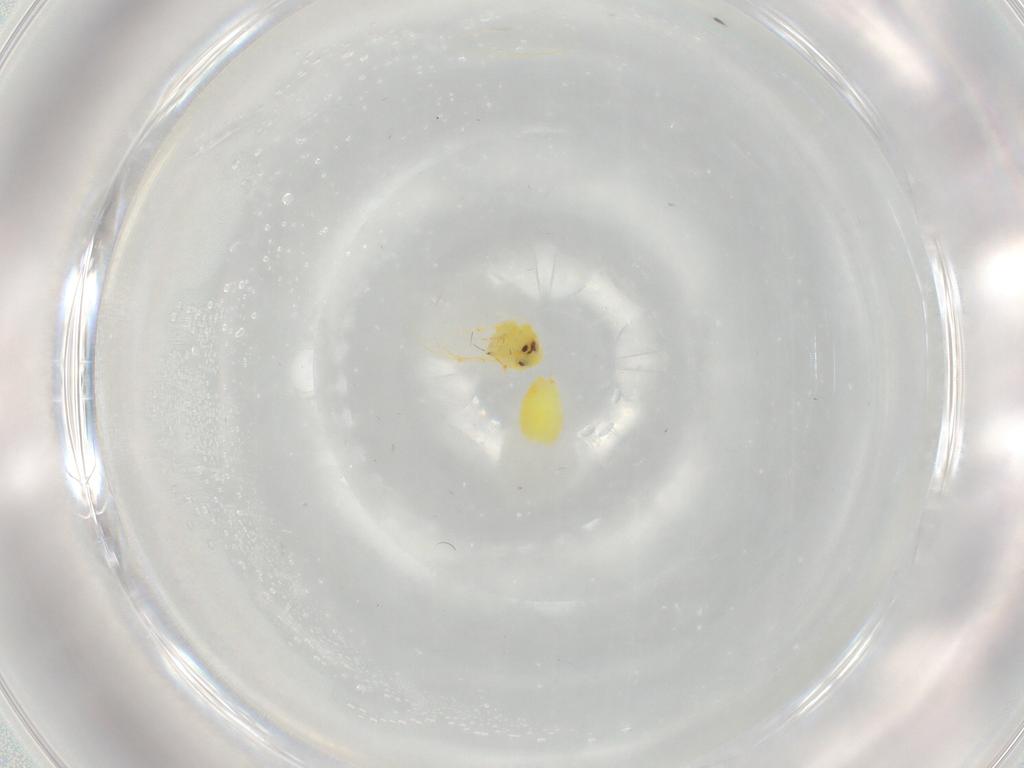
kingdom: Animalia
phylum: Arthropoda
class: Insecta
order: Hemiptera
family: Aleyrodidae
